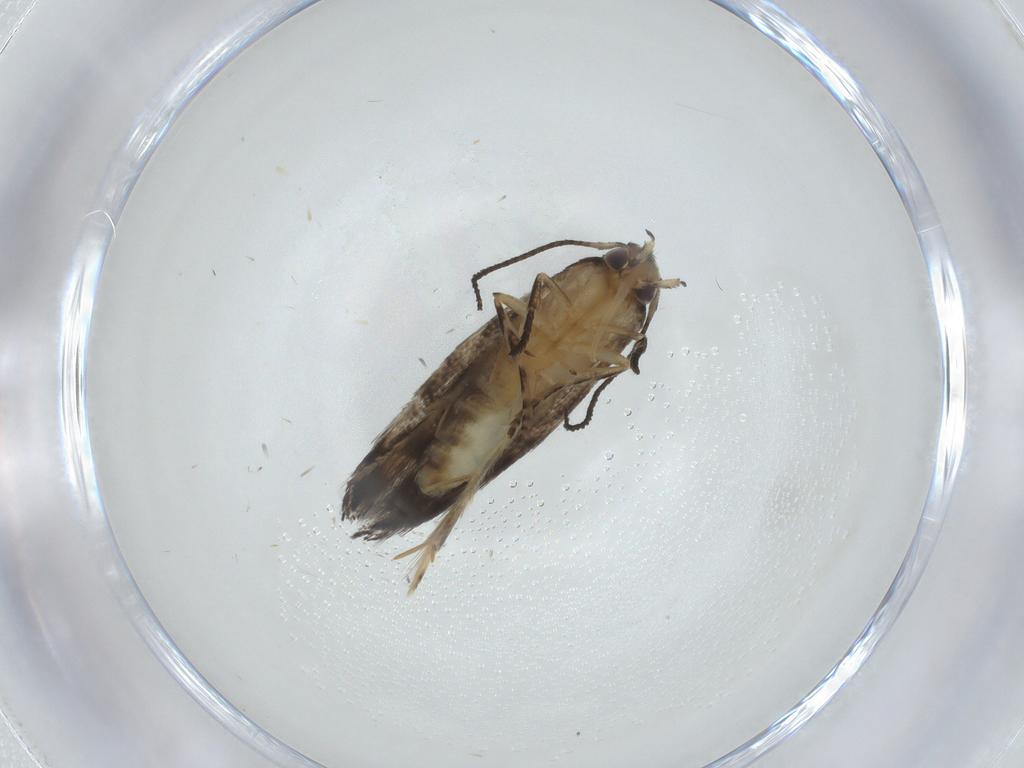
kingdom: Animalia
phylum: Arthropoda
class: Insecta
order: Lepidoptera
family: Elachistidae
